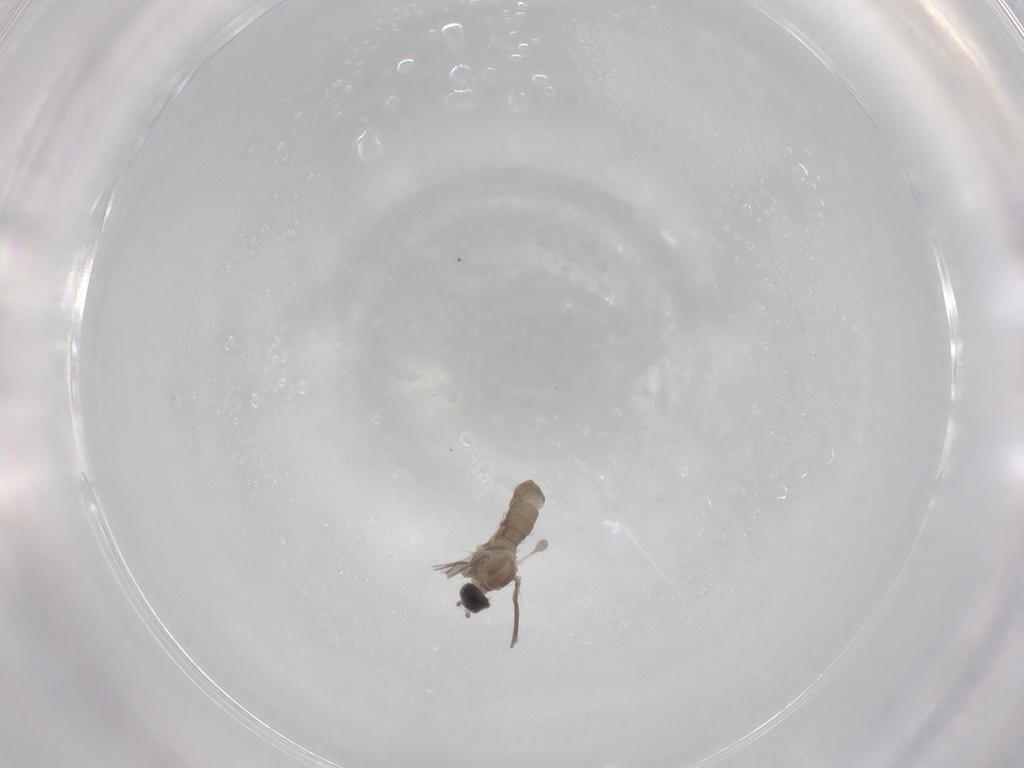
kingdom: Animalia
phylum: Arthropoda
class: Insecta
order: Diptera
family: Cecidomyiidae
